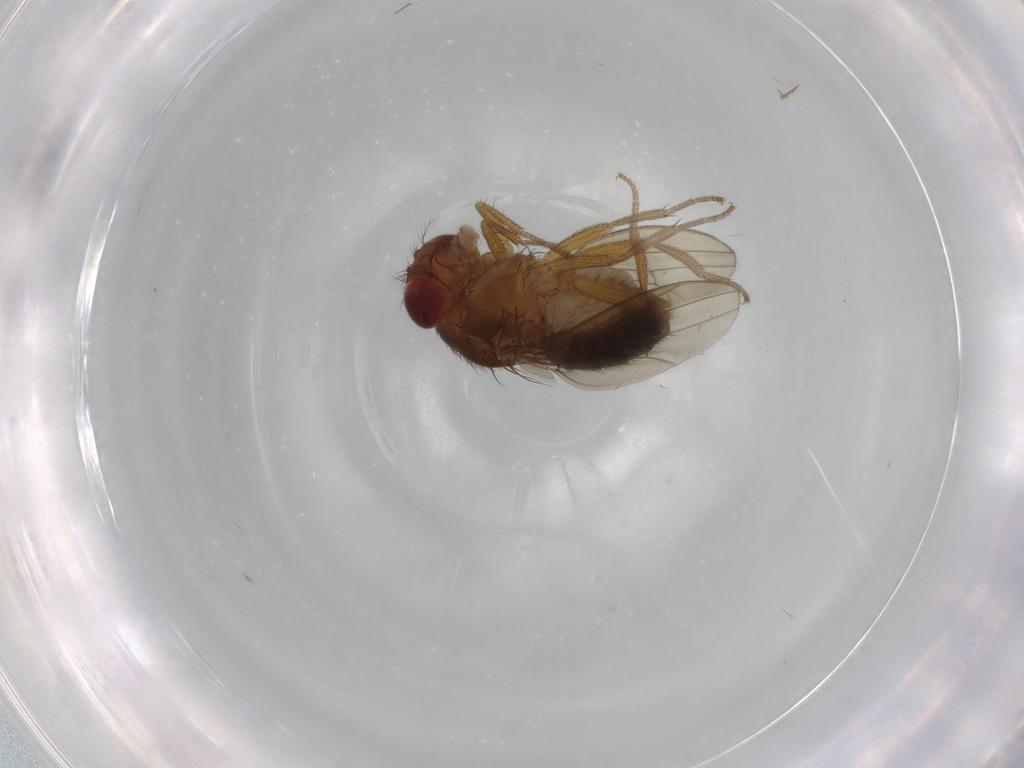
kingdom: Animalia
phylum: Arthropoda
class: Insecta
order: Diptera
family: Drosophilidae
